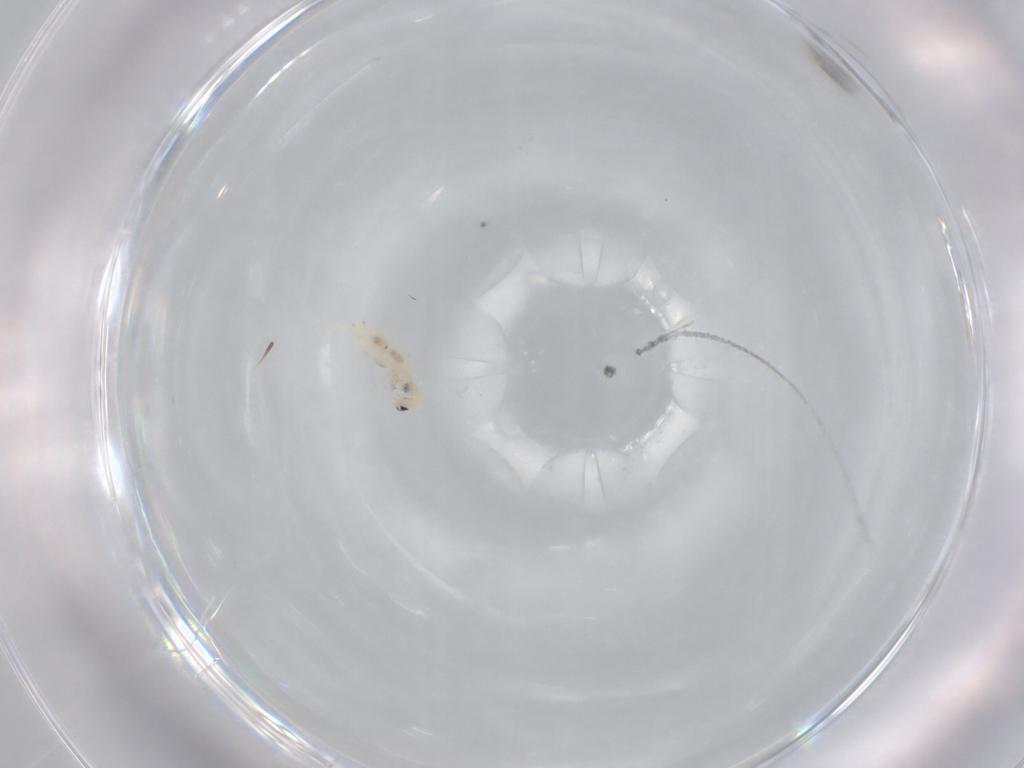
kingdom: Animalia
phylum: Arthropoda
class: Collembola
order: Entomobryomorpha
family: Entomobryidae
